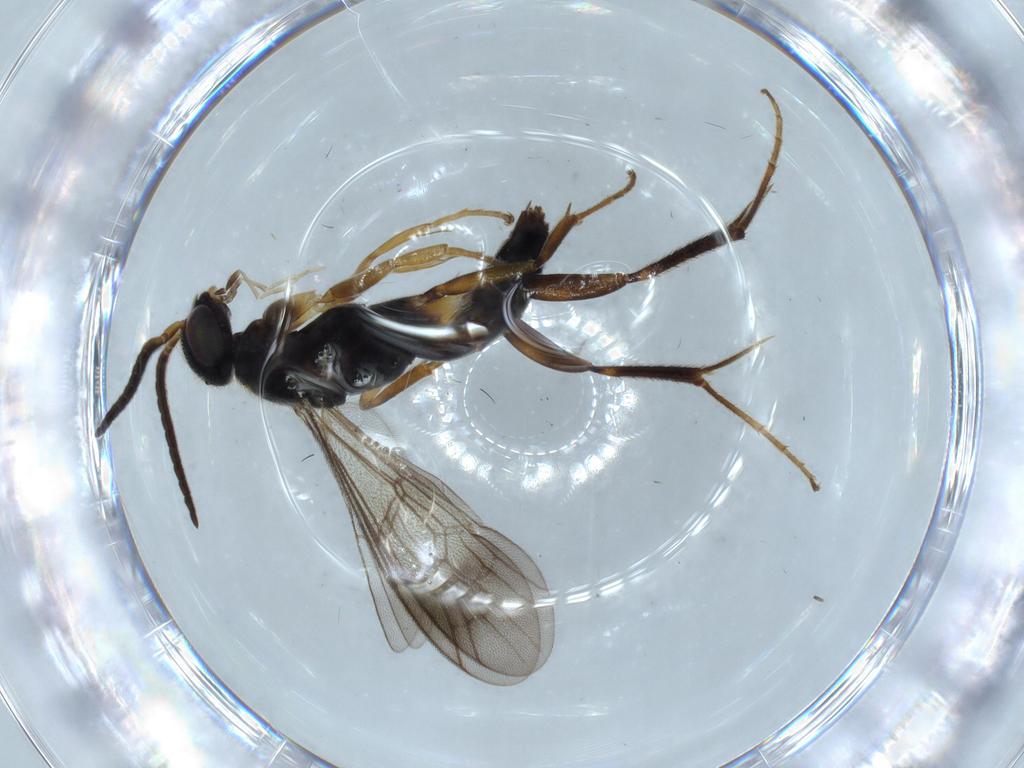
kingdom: Animalia
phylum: Arthropoda
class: Insecta
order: Hymenoptera
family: Pompilidae
